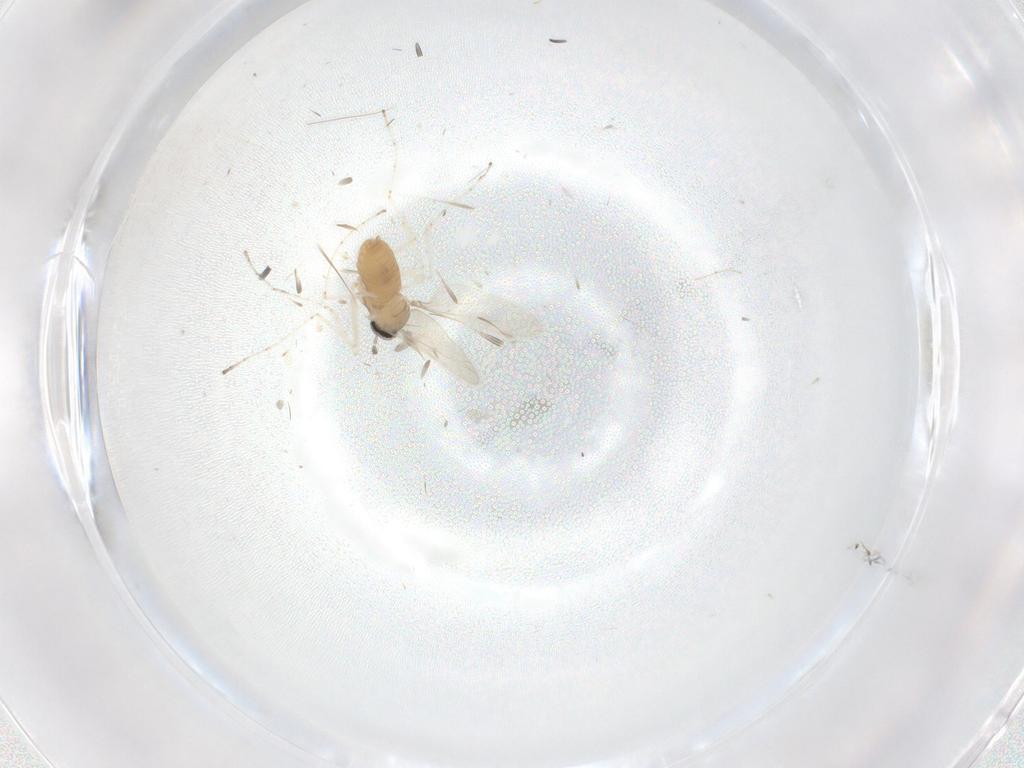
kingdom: Animalia
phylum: Arthropoda
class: Insecta
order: Diptera
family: Cecidomyiidae
